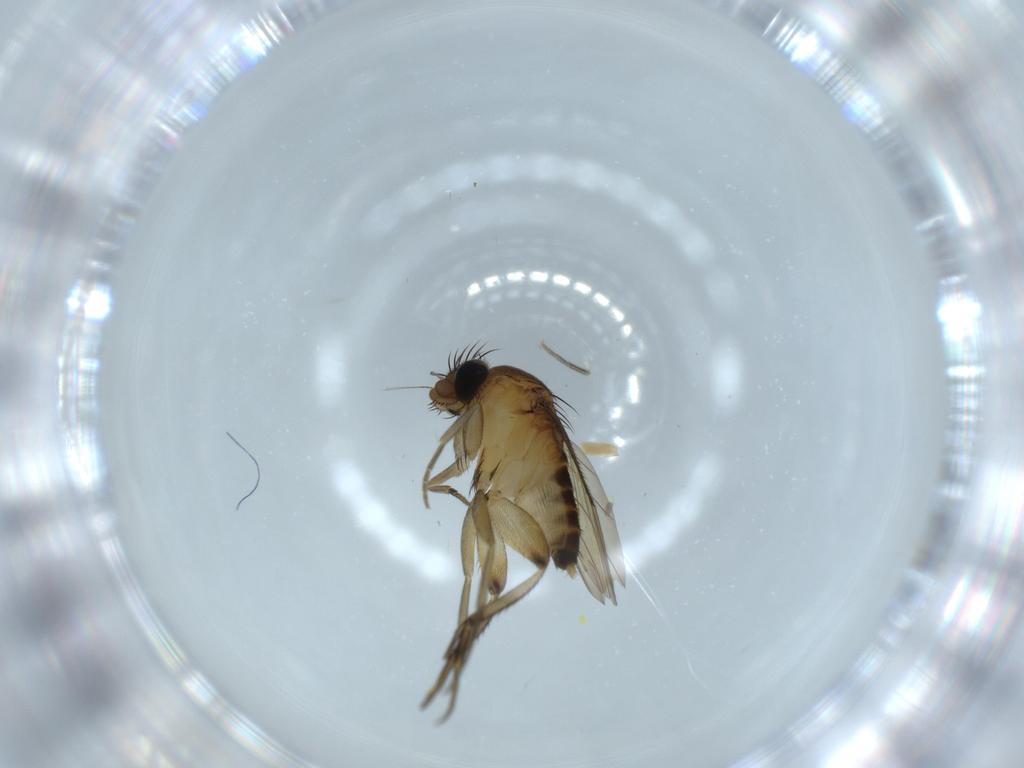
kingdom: Animalia
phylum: Arthropoda
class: Insecta
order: Diptera
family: Phoridae
